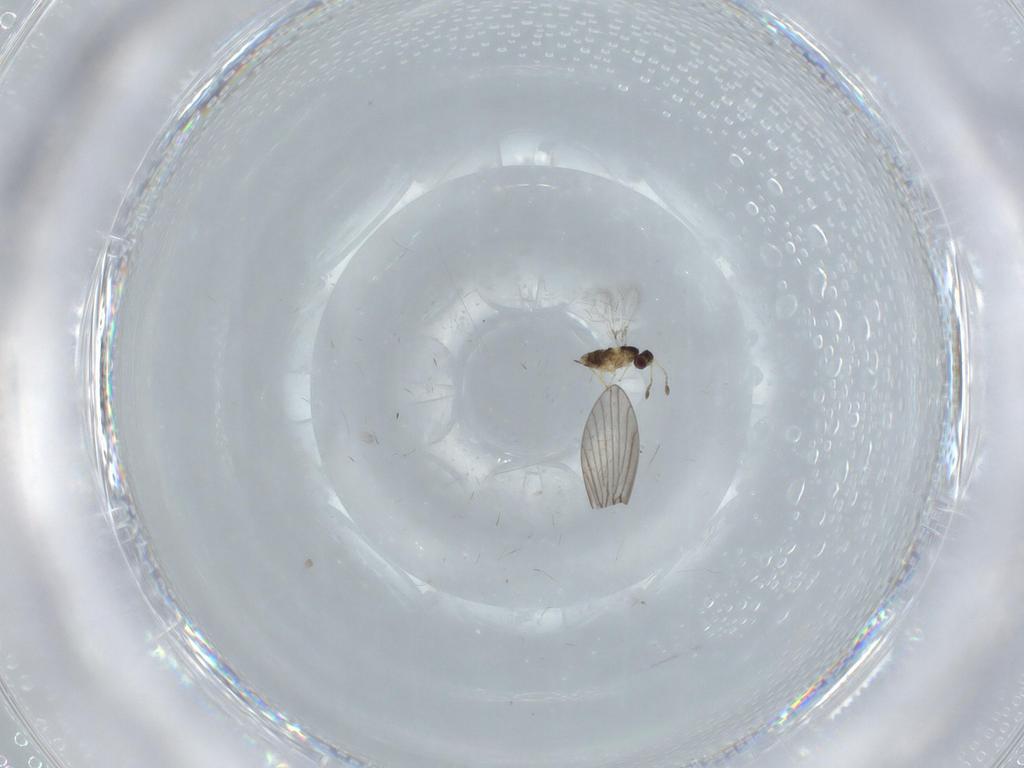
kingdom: Animalia
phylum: Arthropoda
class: Insecta
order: Hymenoptera
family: Mymaridae
